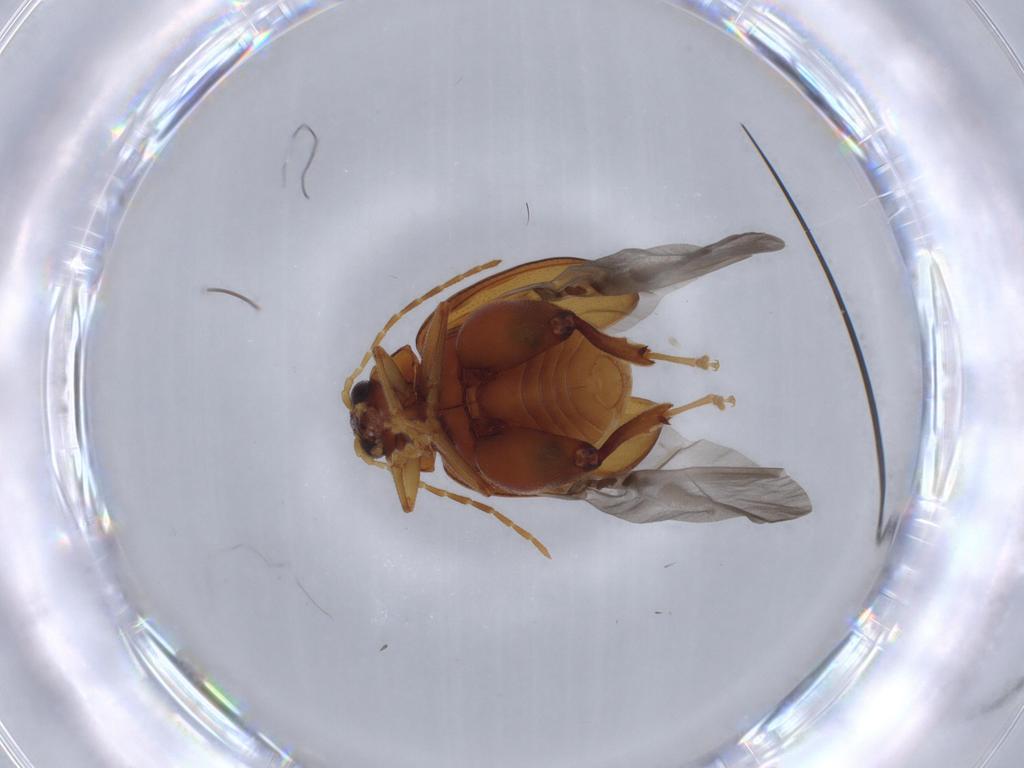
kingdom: Animalia
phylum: Arthropoda
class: Insecta
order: Coleoptera
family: Chrysomelidae
